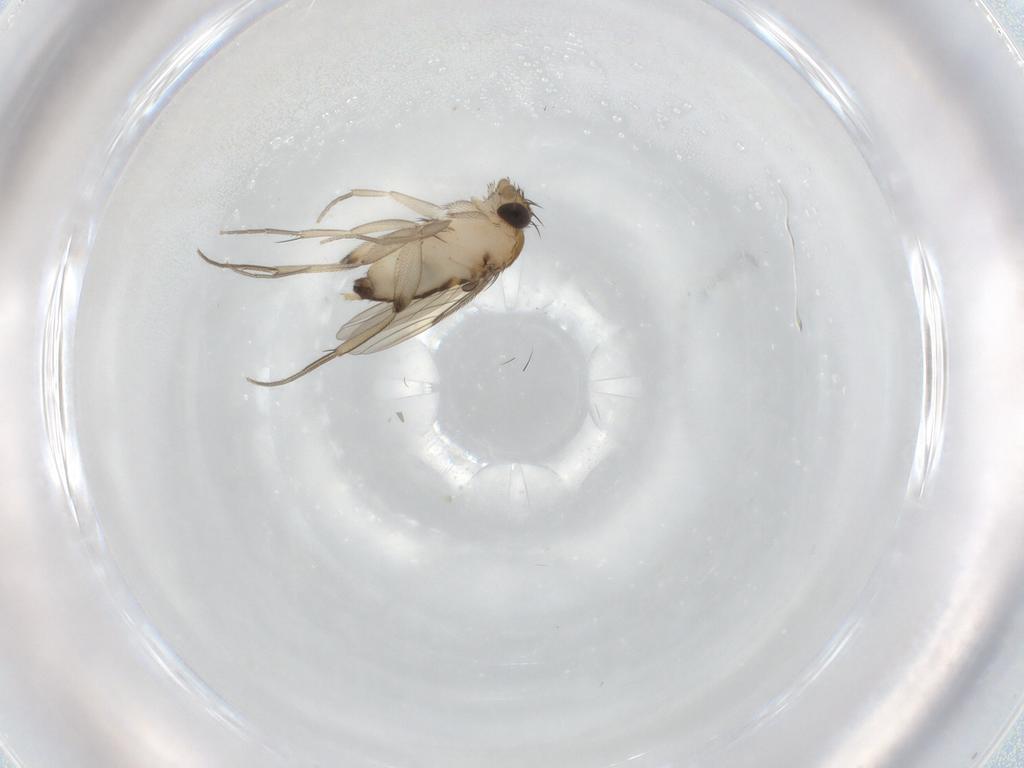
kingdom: Animalia
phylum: Arthropoda
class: Insecta
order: Diptera
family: Phoridae
